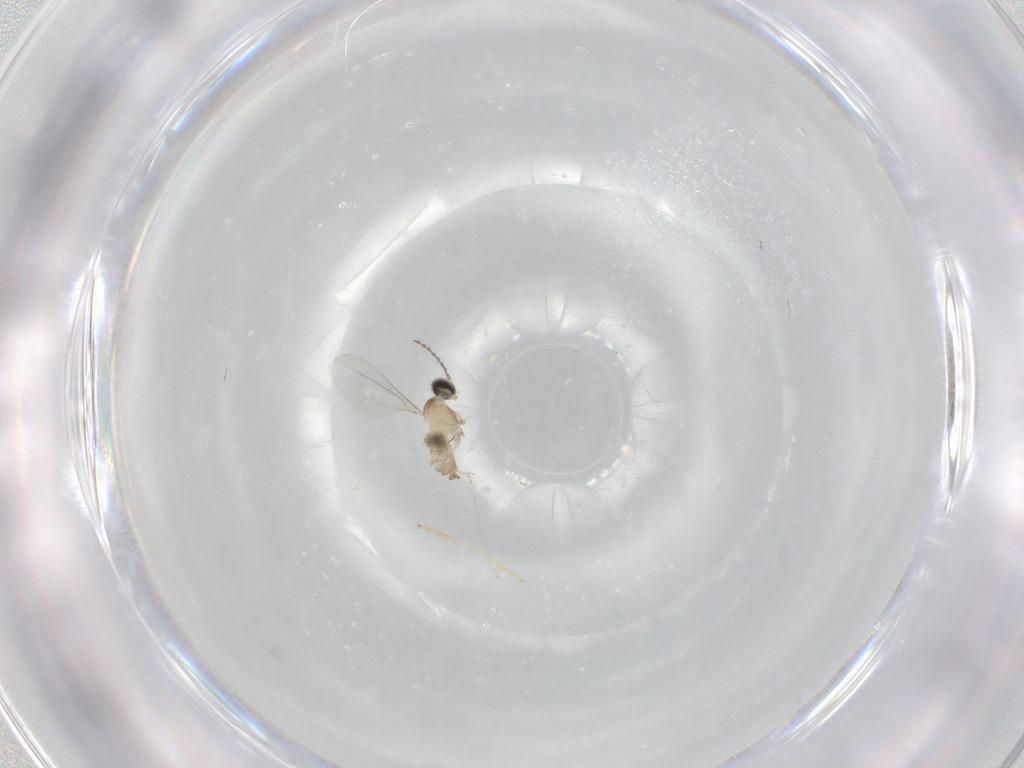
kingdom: Animalia
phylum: Arthropoda
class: Insecta
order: Diptera
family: Cecidomyiidae
